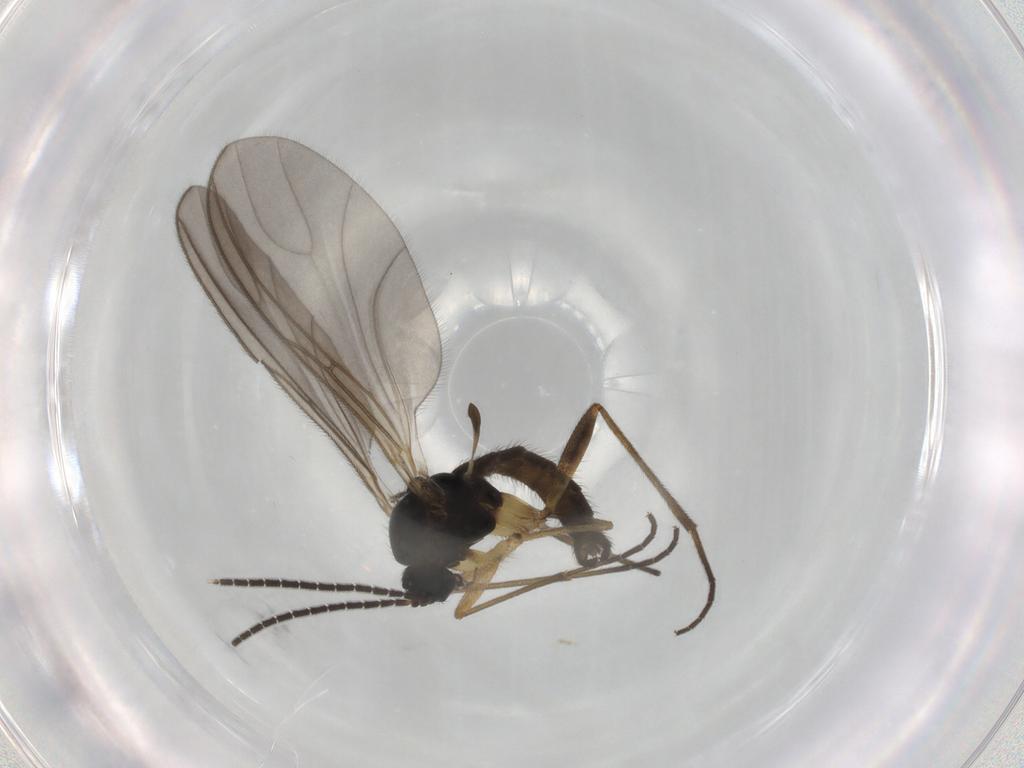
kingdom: Animalia
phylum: Arthropoda
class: Insecta
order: Diptera
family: Sciaridae
